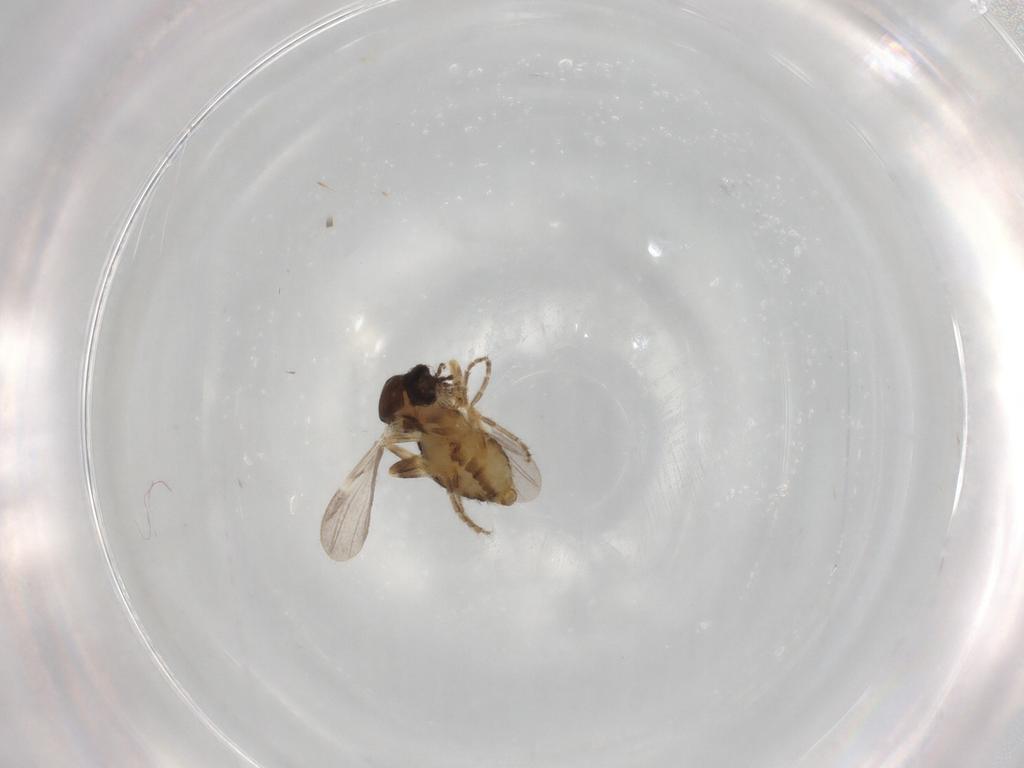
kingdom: Animalia
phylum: Arthropoda
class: Insecta
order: Diptera
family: Ceratopogonidae
